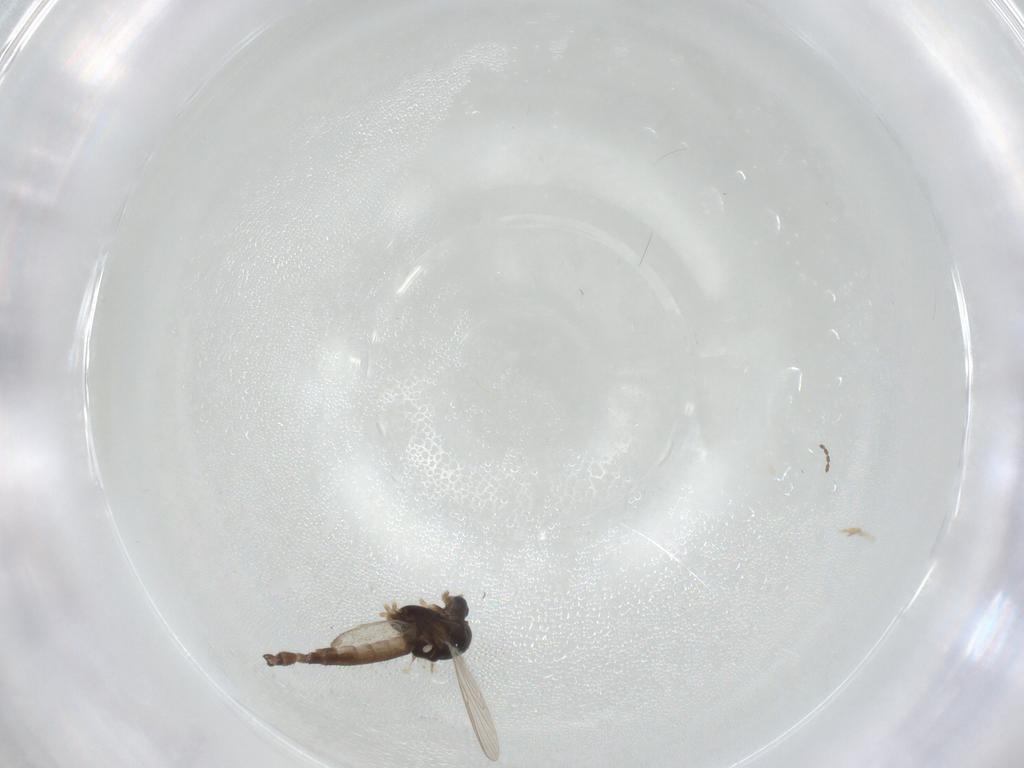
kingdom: Animalia
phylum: Arthropoda
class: Insecta
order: Diptera
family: Cecidomyiidae
